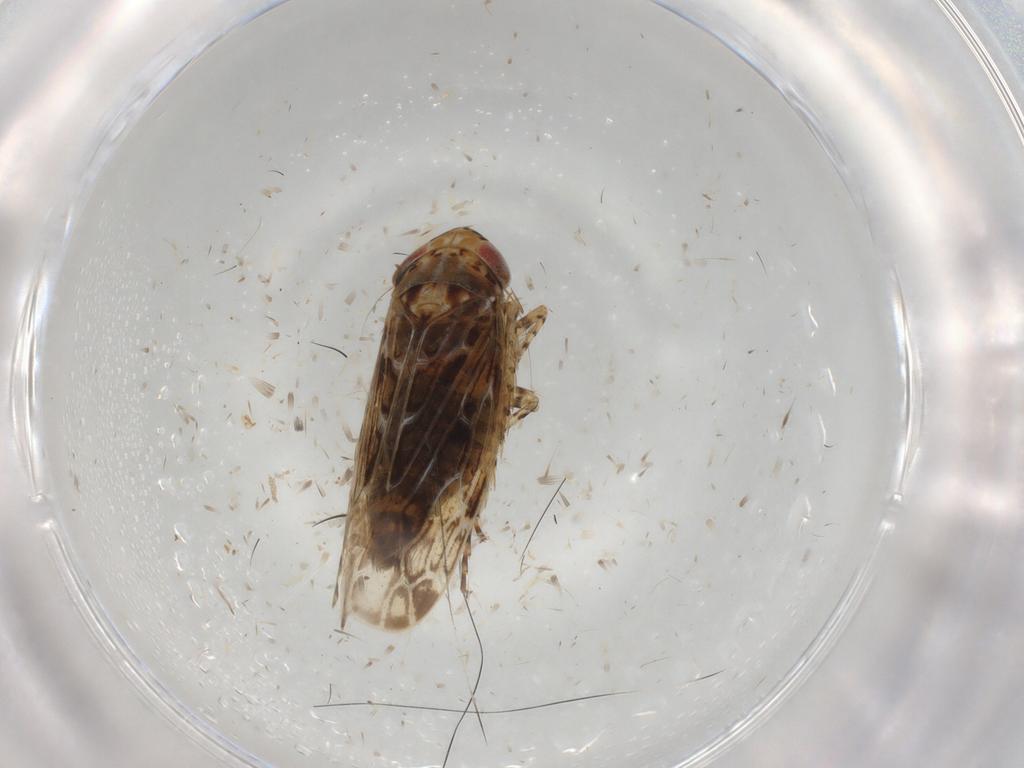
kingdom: Animalia
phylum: Arthropoda
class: Insecta
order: Hemiptera
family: Cicadellidae
